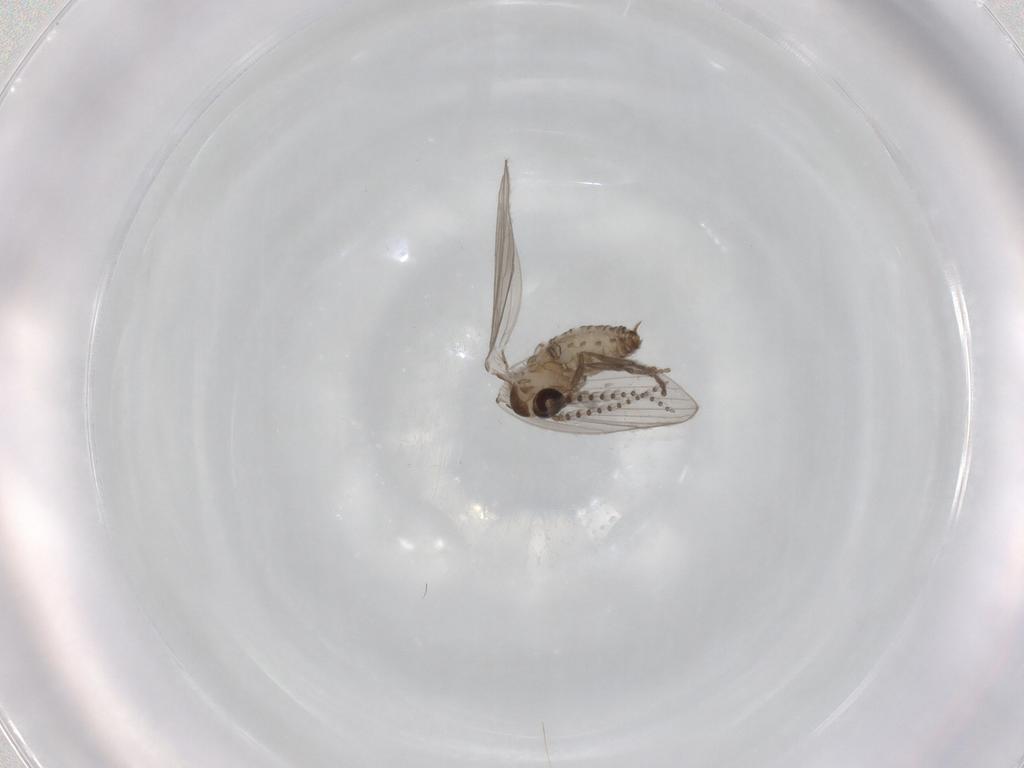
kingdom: Animalia
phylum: Arthropoda
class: Insecta
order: Diptera
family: Psychodidae
